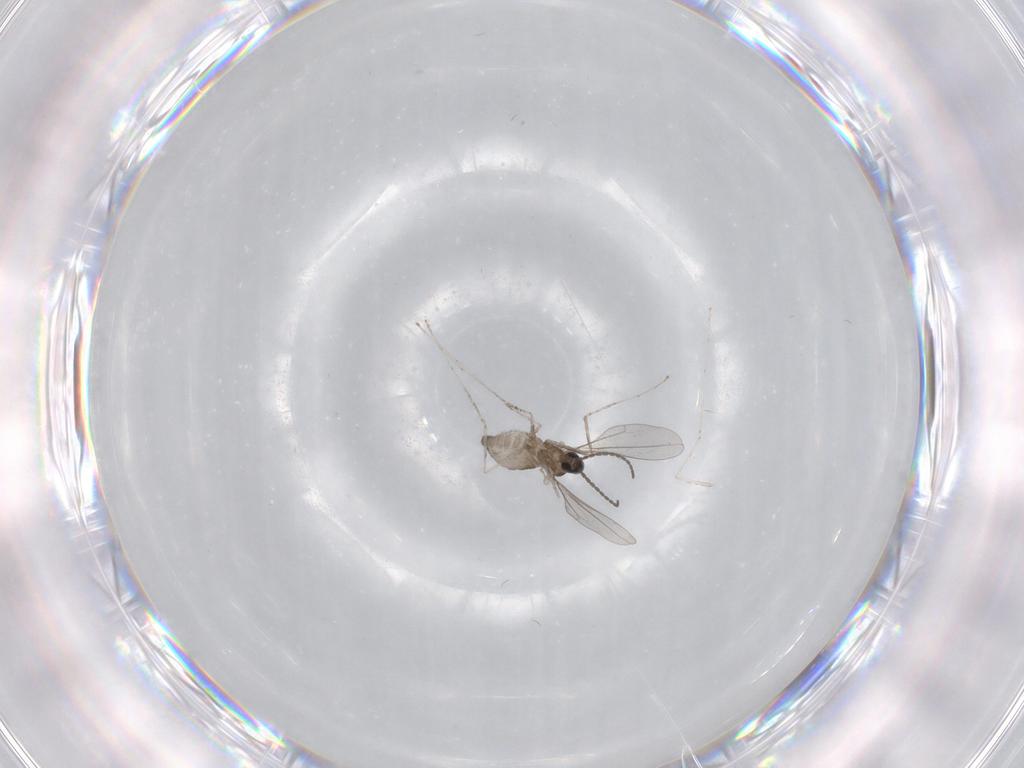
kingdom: Animalia
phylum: Arthropoda
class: Insecta
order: Diptera
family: Cecidomyiidae
